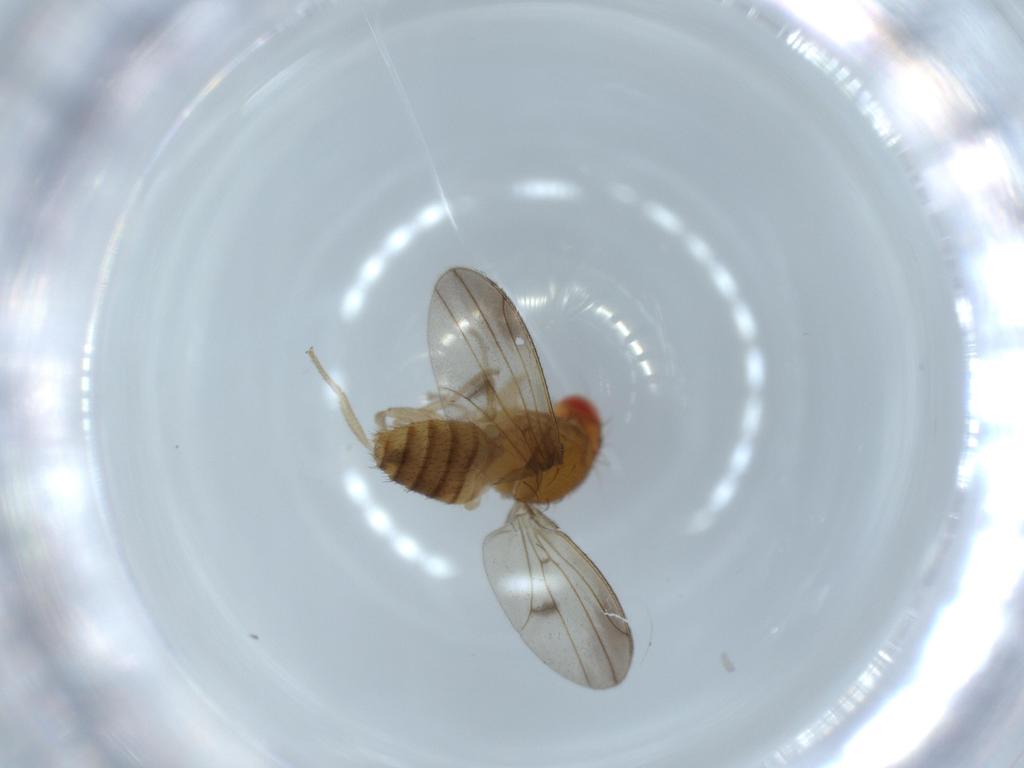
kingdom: Animalia
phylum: Arthropoda
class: Insecta
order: Diptera
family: Drosophilidae
